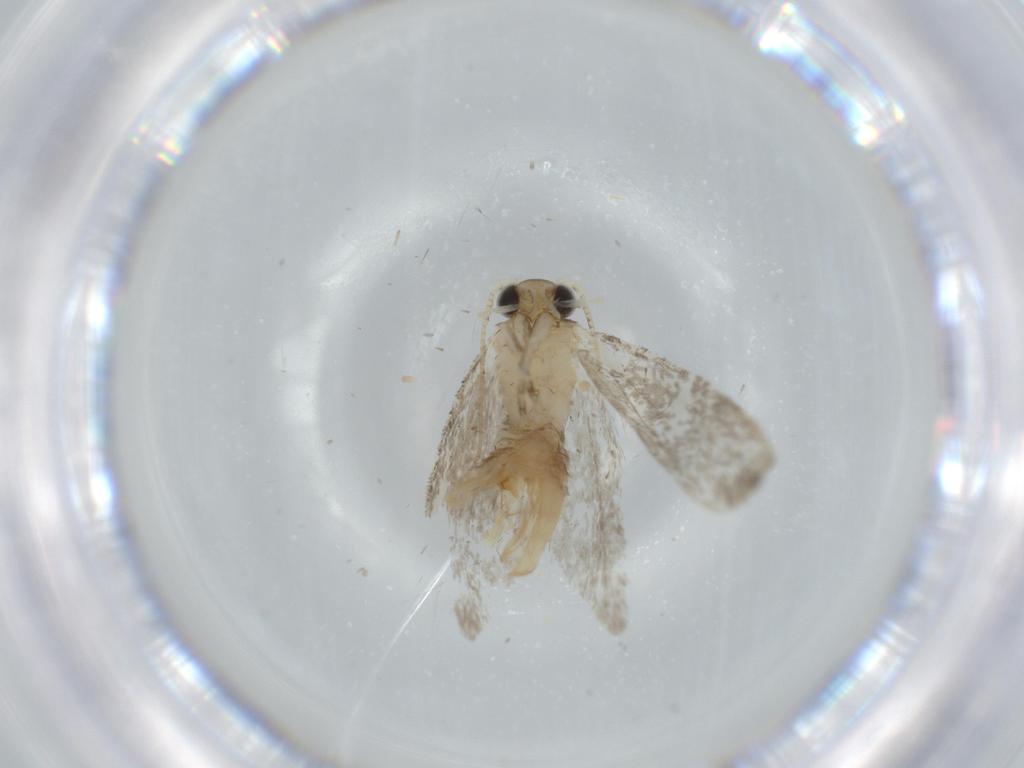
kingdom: Animalia
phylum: Arthropoda
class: Insecta
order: Lepidoptera
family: Tineidae
